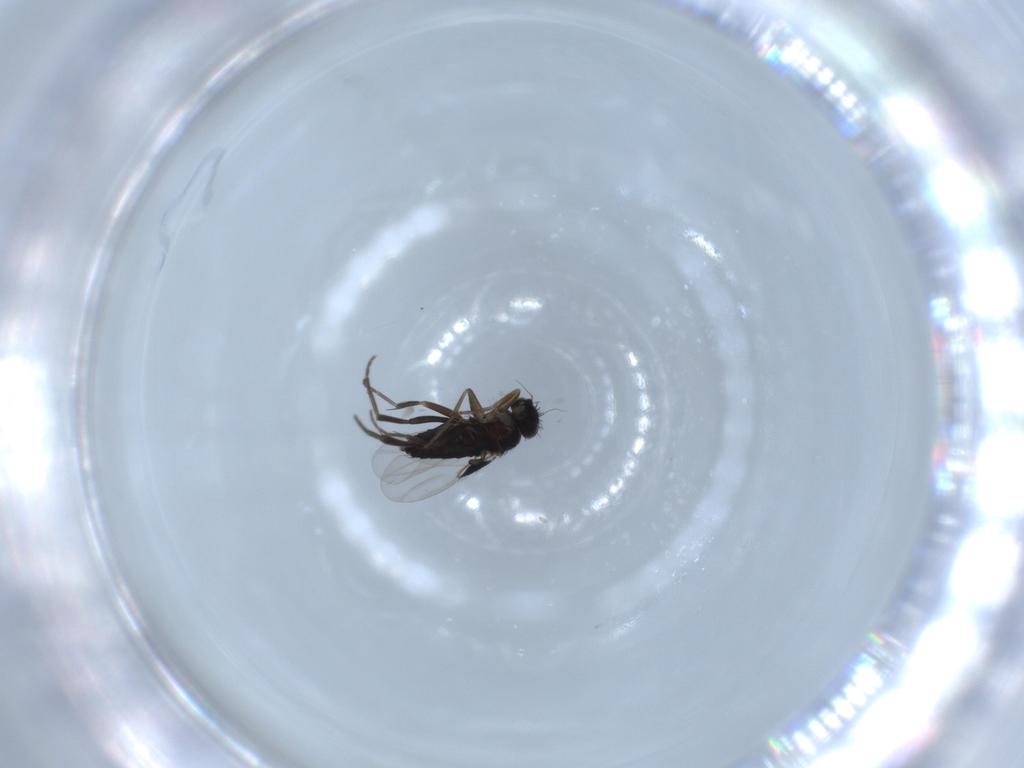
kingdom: Animalia
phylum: Arthropoda
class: Insecta
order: Diptera
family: Phoridae
